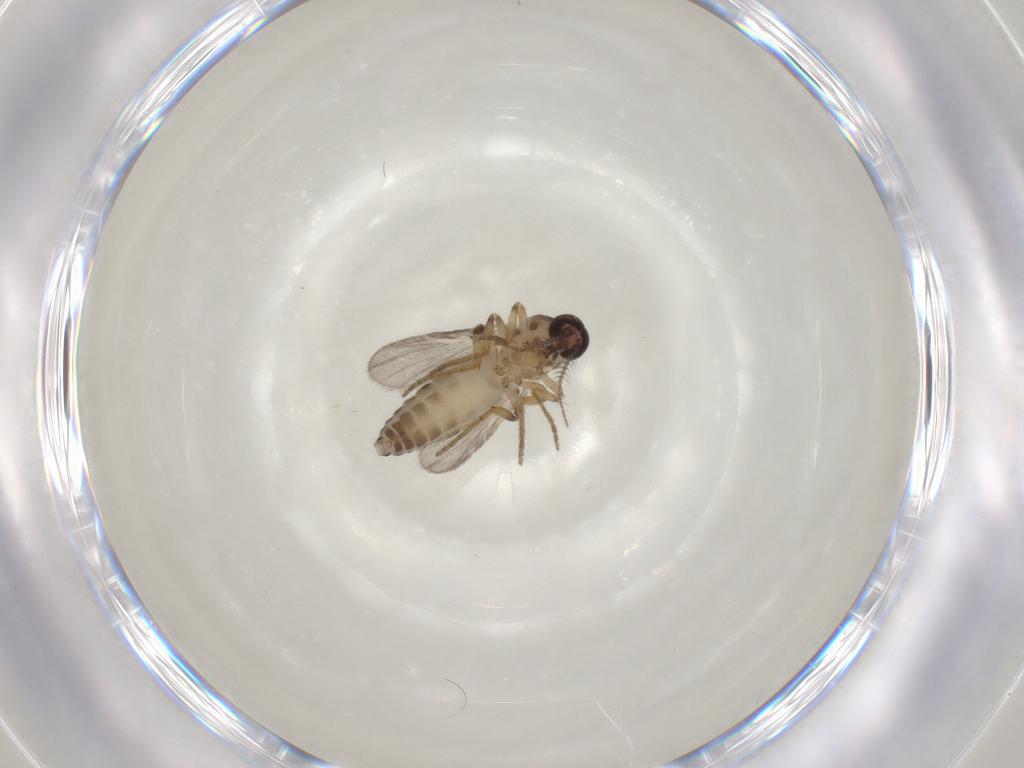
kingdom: Animalia
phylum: Arthropoda
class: Insecta
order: Diptera
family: Ceratopogonidae
